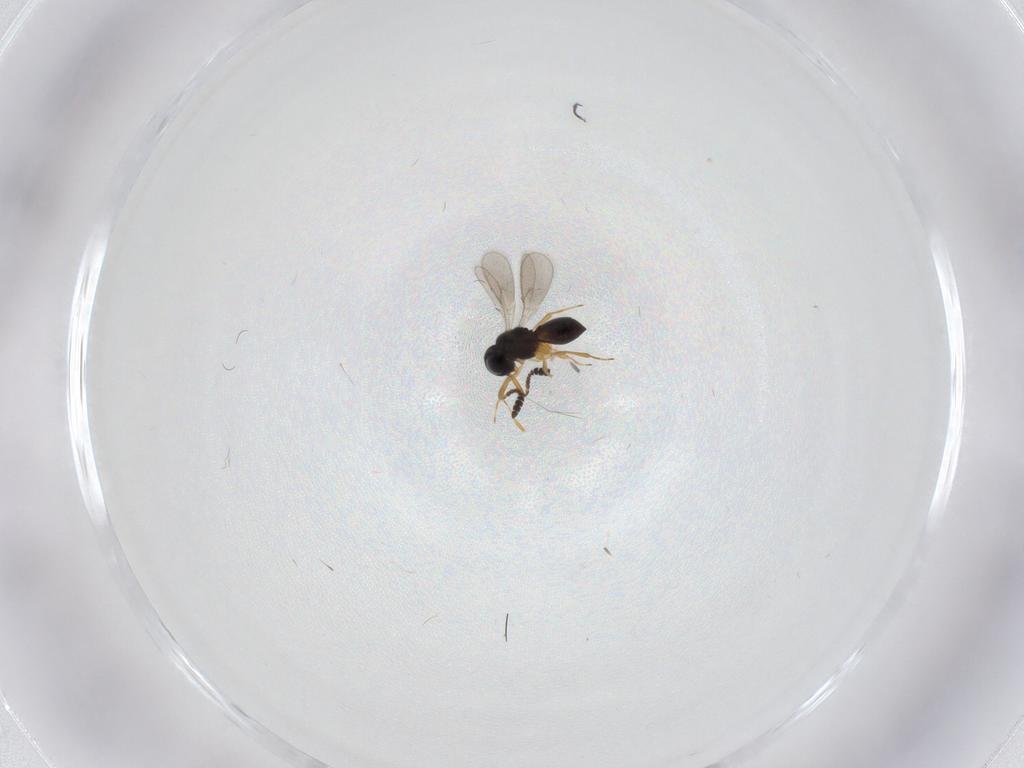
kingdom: Animalia
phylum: Arthropoda
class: Insecta
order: Hymenoptera
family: Scelionidae
